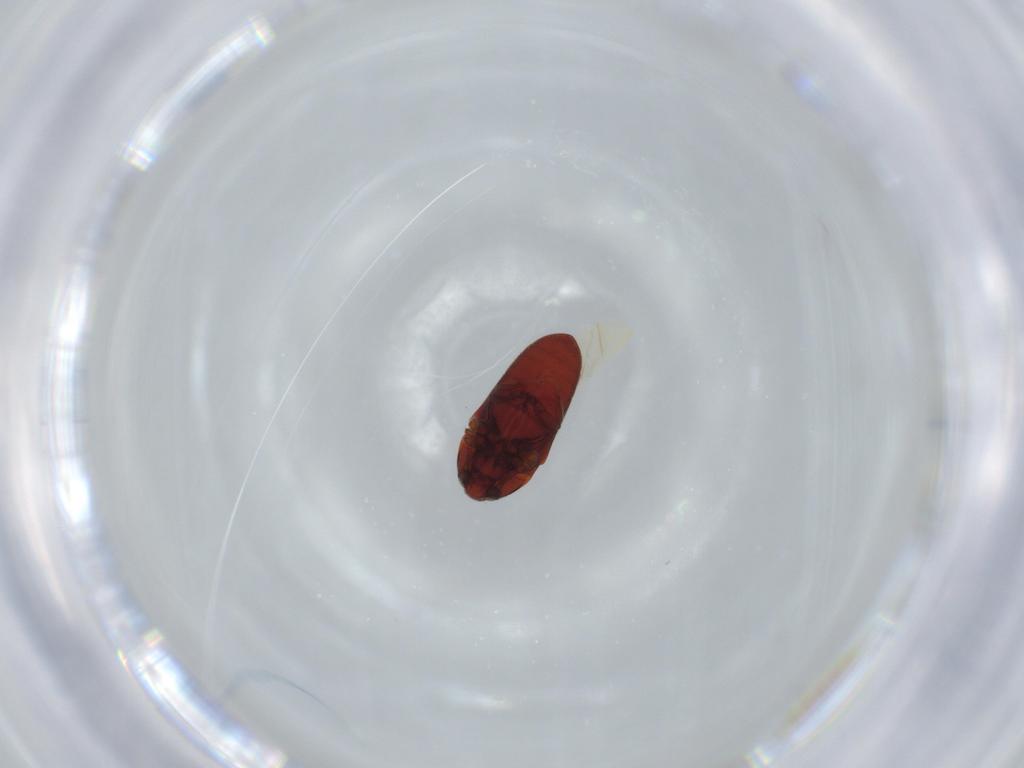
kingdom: Animalia
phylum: Arthropoda
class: Insecta
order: Coleoptera
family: Throscidae
